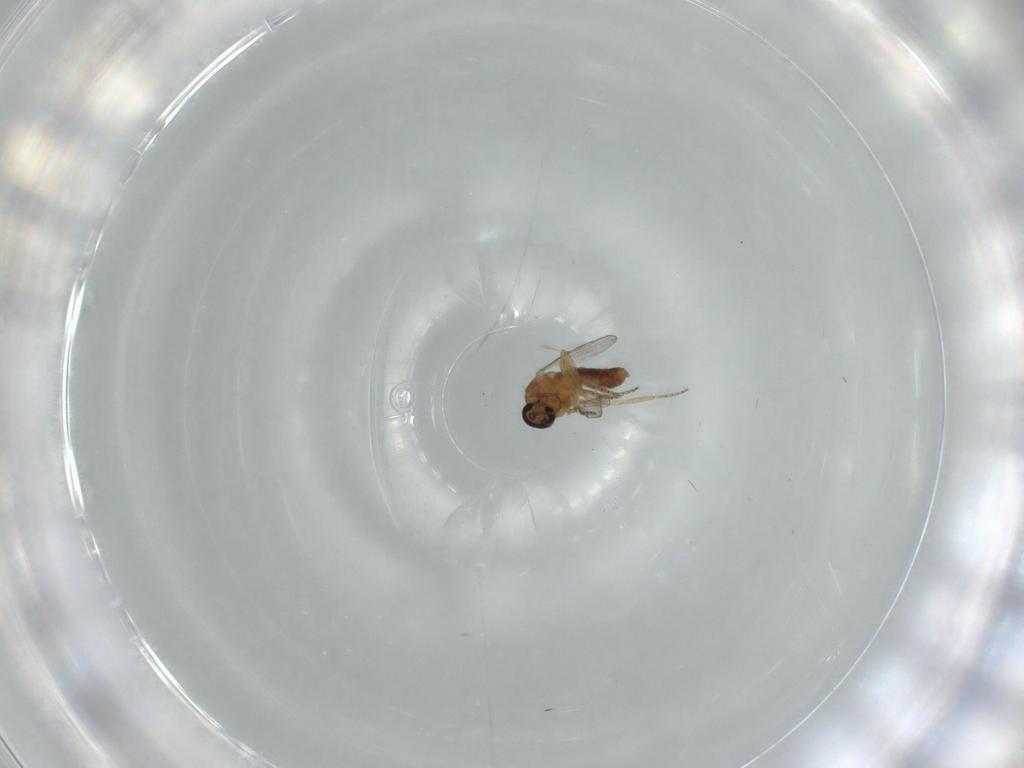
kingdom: Animalia
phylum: Arthropoda
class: Insecta
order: Diptera
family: Ceratopogonidae
